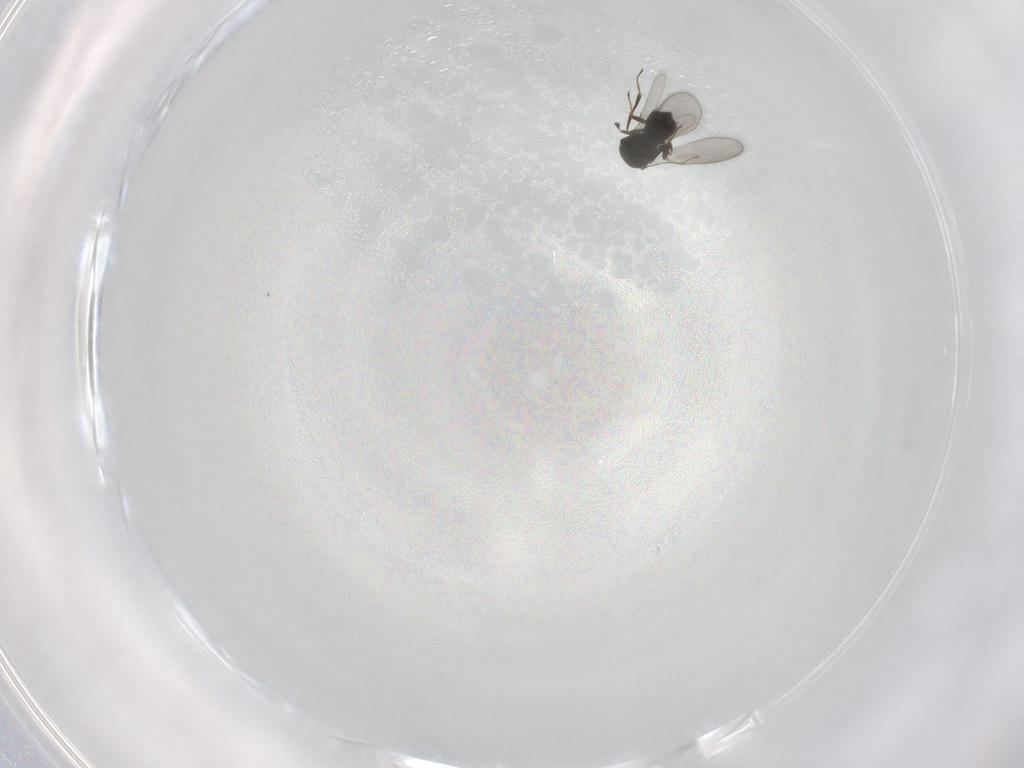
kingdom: Animalia
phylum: Arthropoda
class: Insecta
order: Hymenoptera
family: Scelionidae
